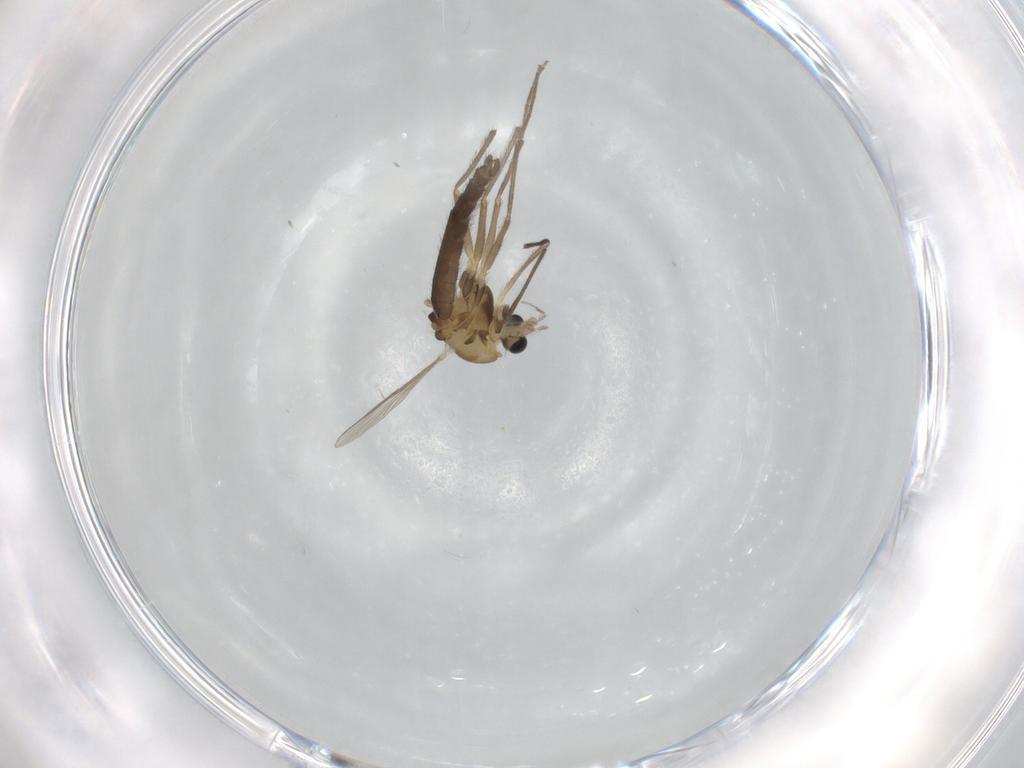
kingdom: Animalia
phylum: Arthropoda
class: Insecta
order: Diptera
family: Chironomidae
